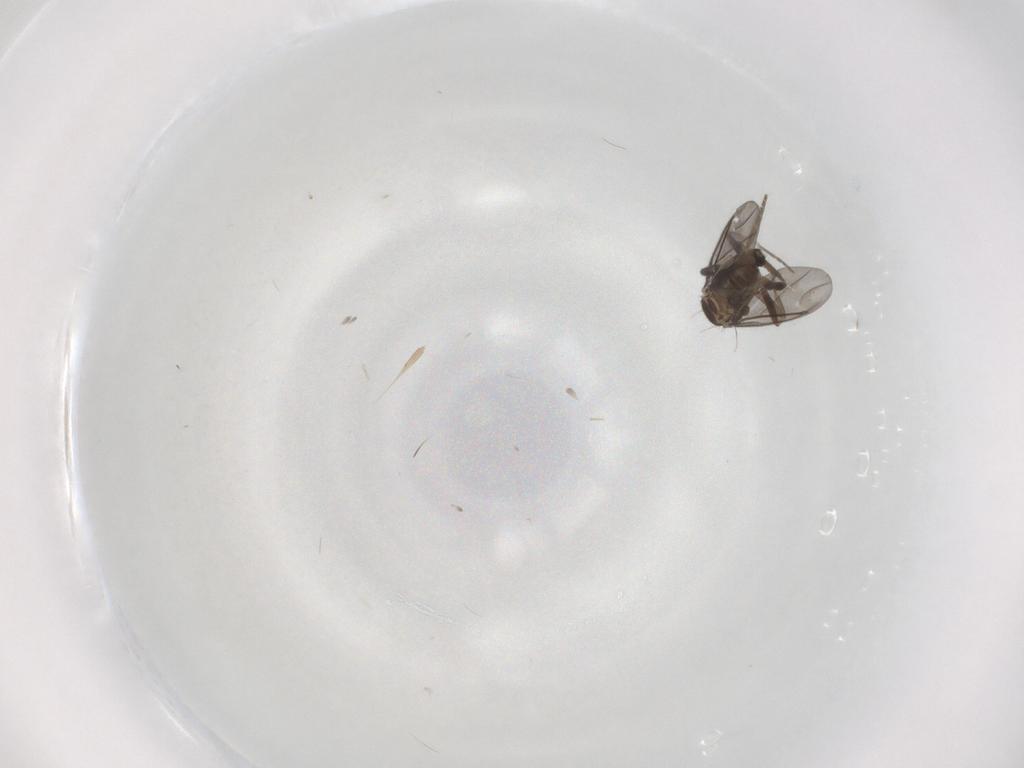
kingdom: Animalia
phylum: Arthropoda
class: Insecta
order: Diptera
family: Phoridae
